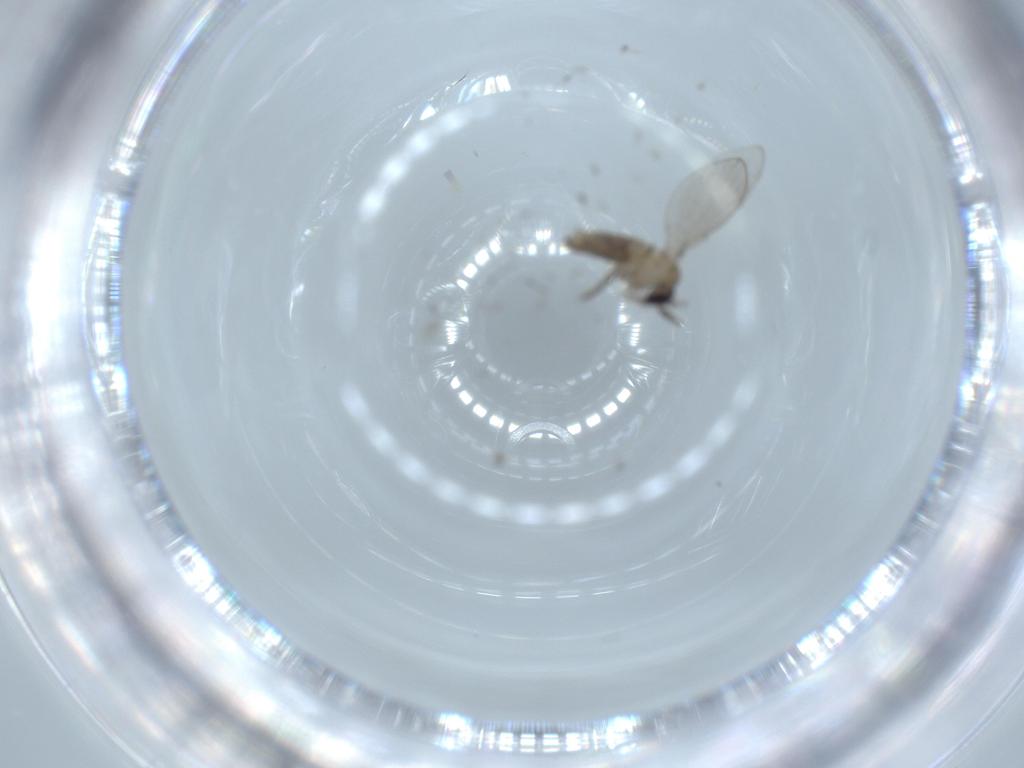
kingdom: Animalia
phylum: Arthropoda
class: Insecta
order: Diptera
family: Psychodidae
